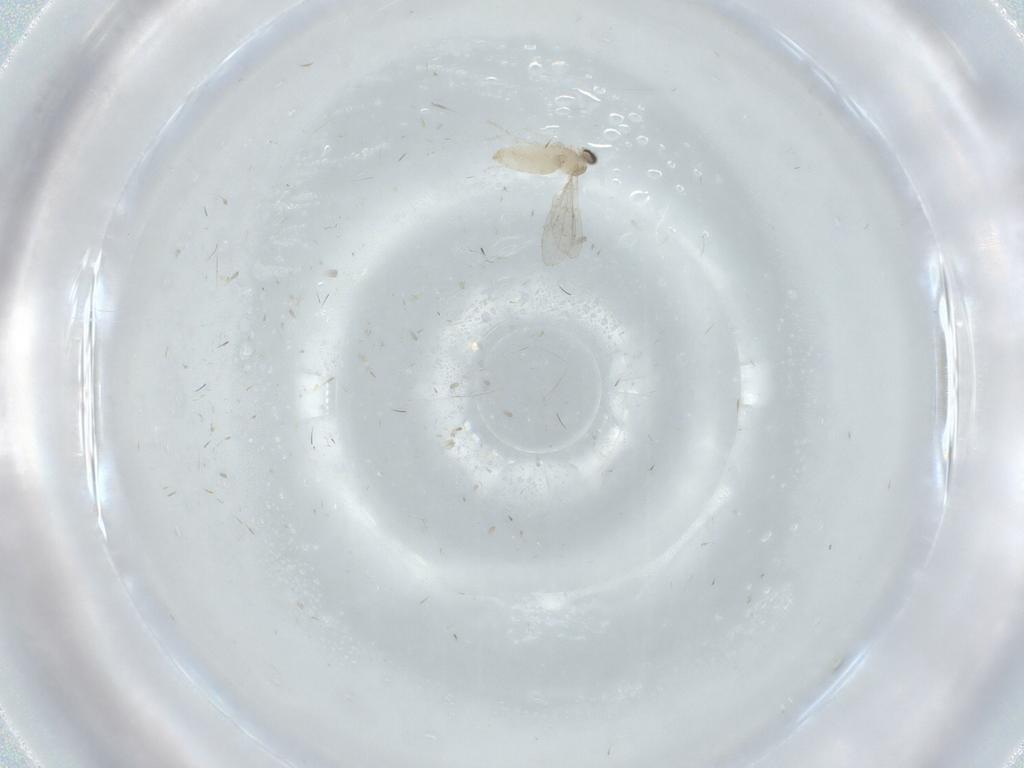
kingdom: Animalia
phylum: Arthropoda
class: Insecta
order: Diptera
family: Cecidomyiidae
